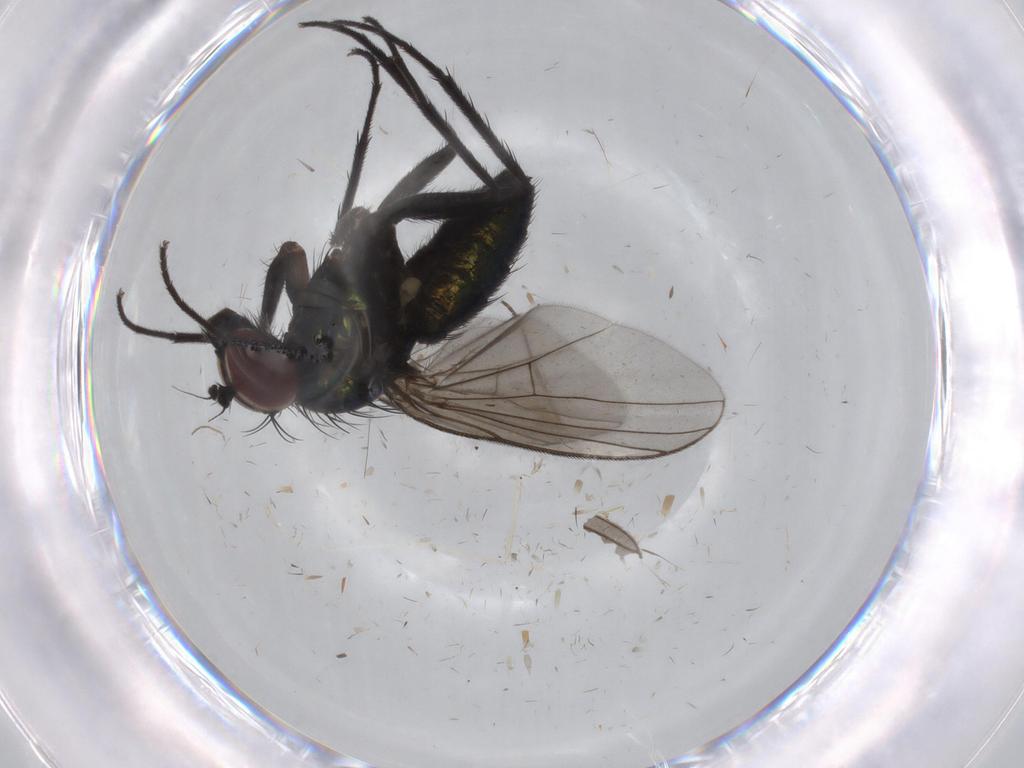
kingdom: Animalia
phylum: Arthropoda
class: Insecta
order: Diptera
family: Dolichopodidae
